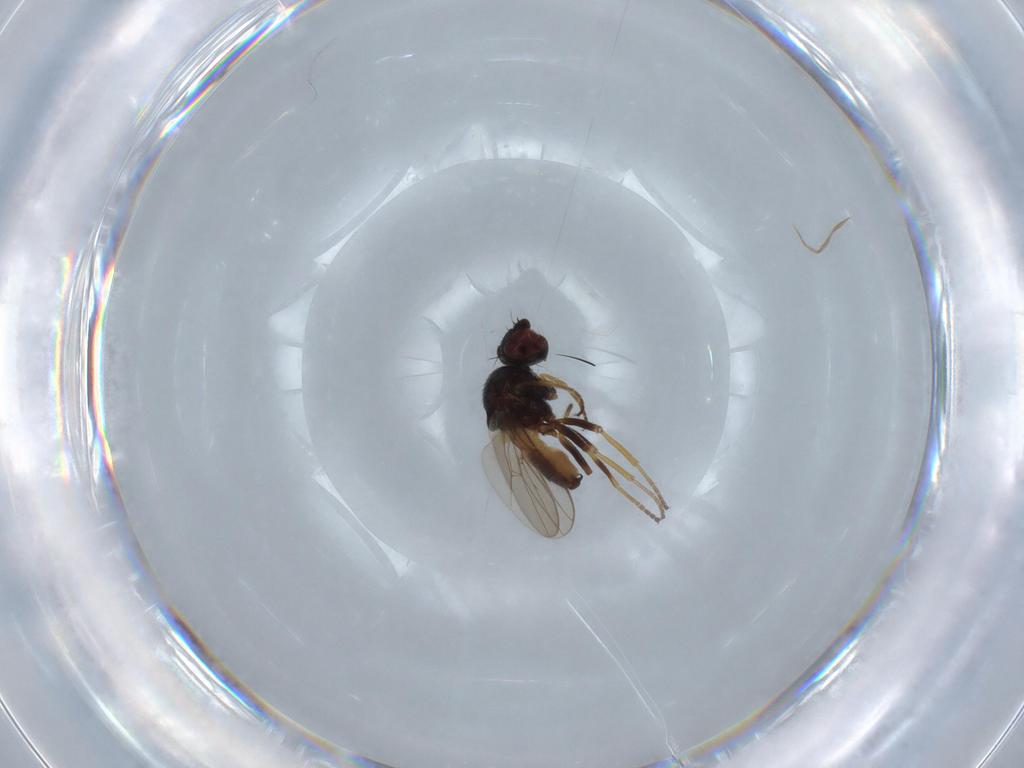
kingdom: Animalia
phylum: Arthropoda
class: Insecta
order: Diptera
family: Chloropidae
